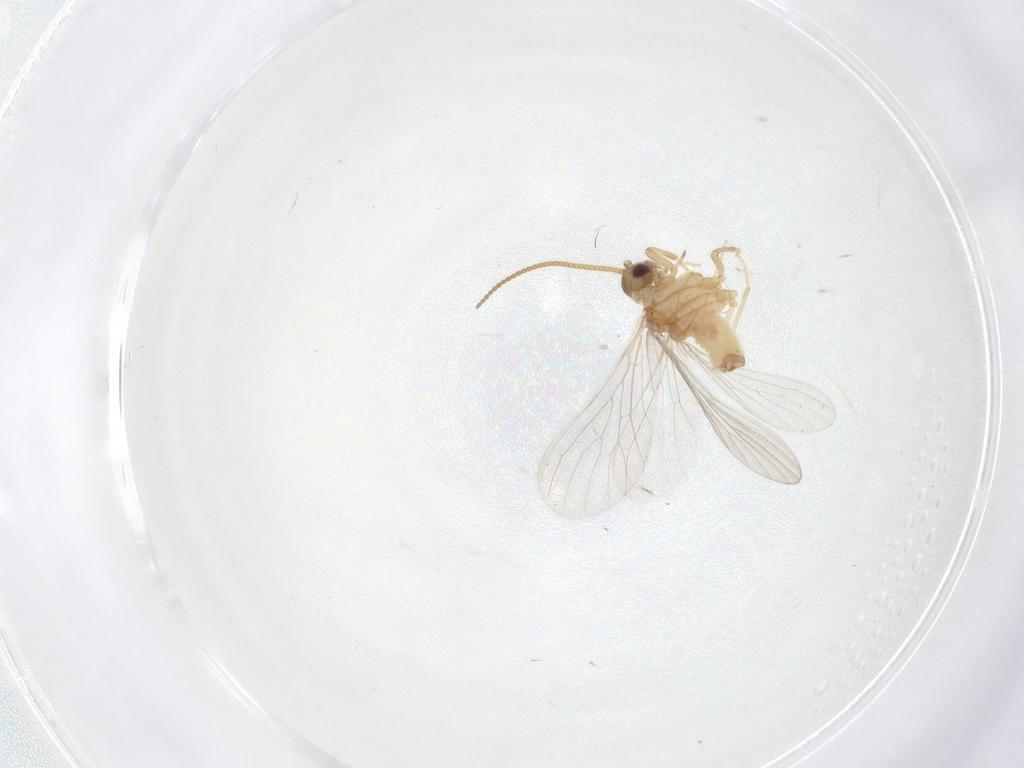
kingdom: Animalia
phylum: Arthropoda
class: Insecta
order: Neuroptera
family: Coniopterygidae
